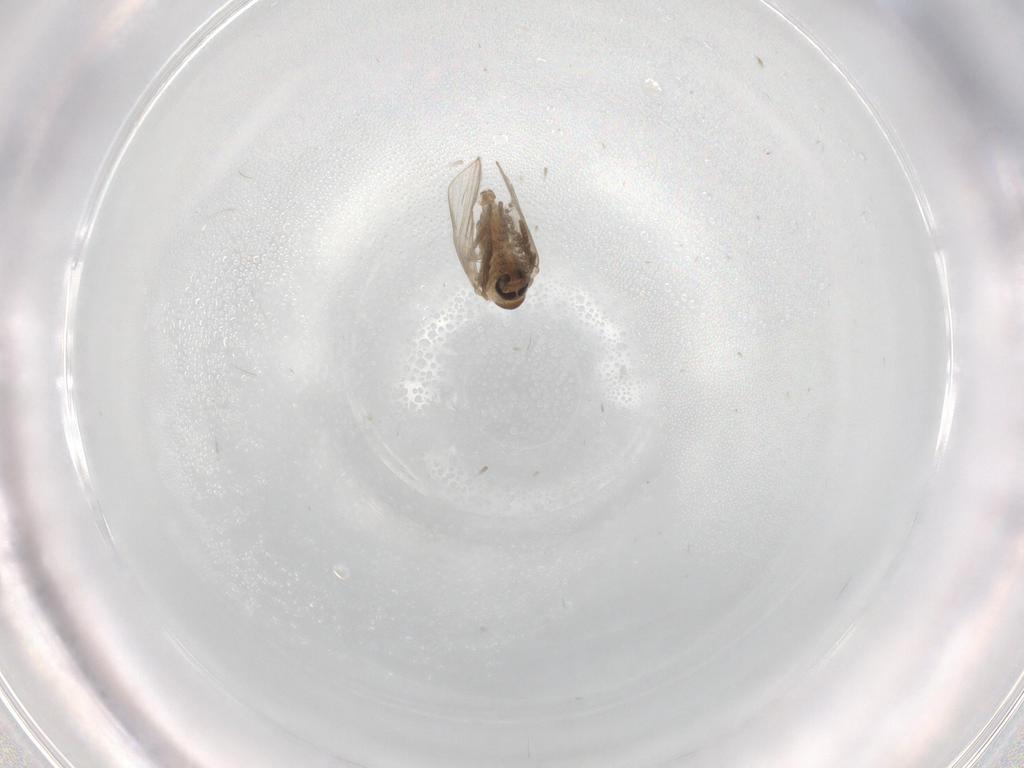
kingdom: Animalia
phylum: Arthropoda
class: Insecta
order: Diptera
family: Psychodidae
